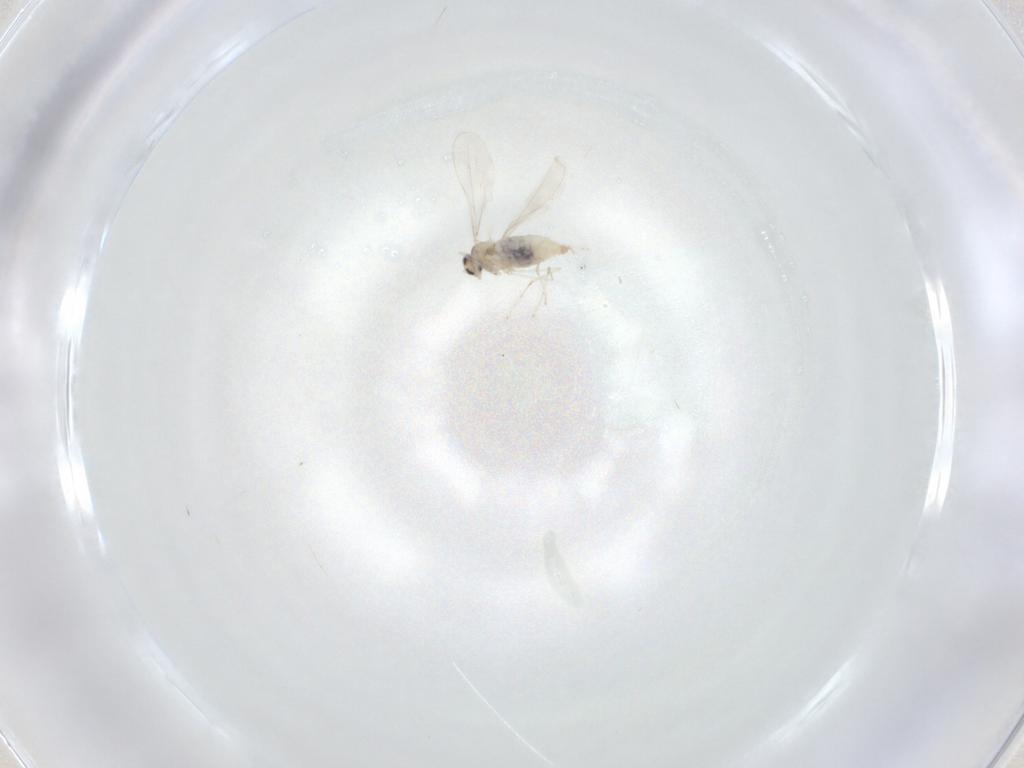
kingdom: Animalia
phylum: Arthropoda
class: Insecta
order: Diptera
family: Cecidomyiidae
